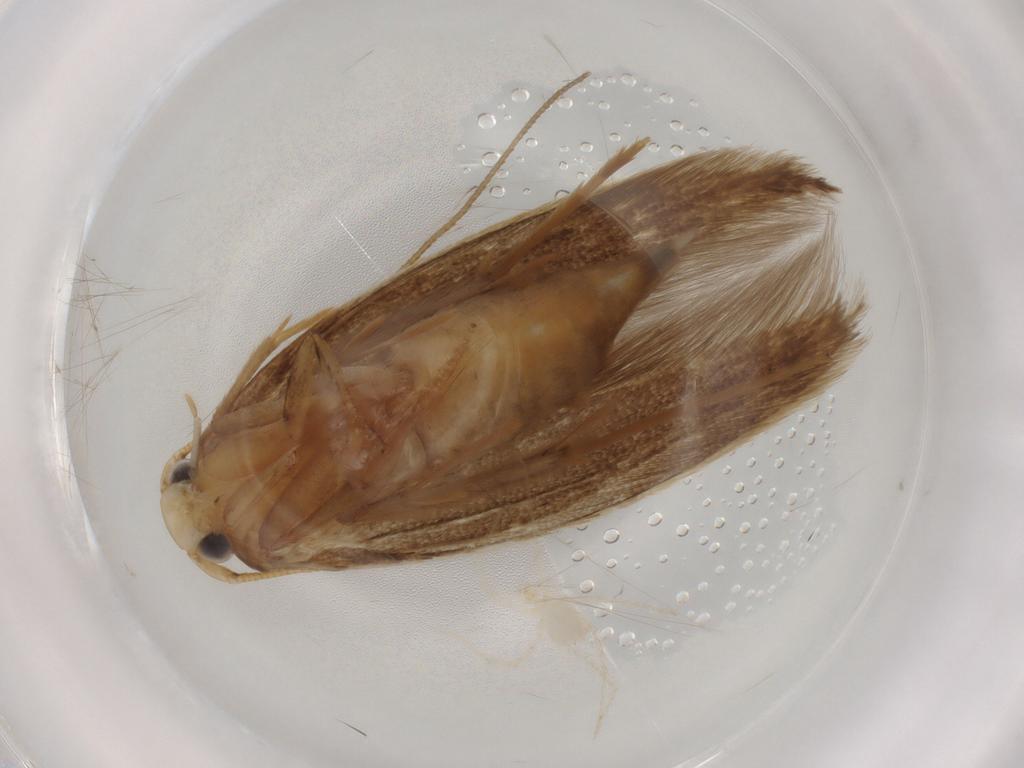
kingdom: Animalia
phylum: Arthropoda
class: Insecta
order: Lepidoptera
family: Tineidae
